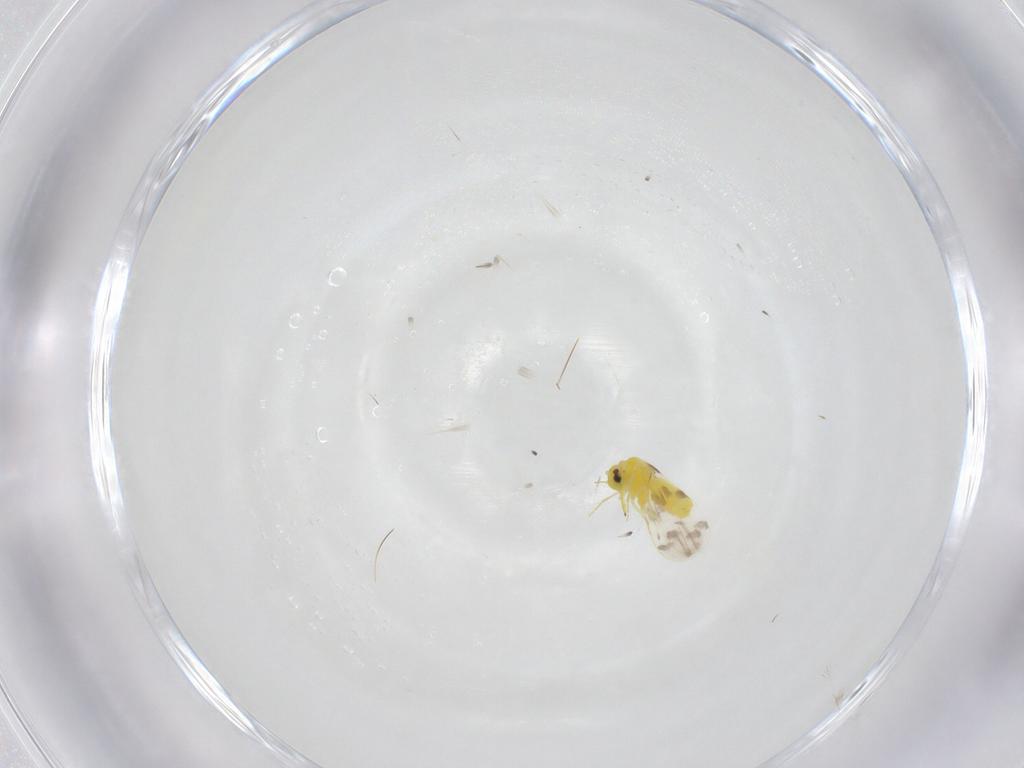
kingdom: Animalia
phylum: Arthropoda
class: Insecta
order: Hemiptera
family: Aleyrodidae
